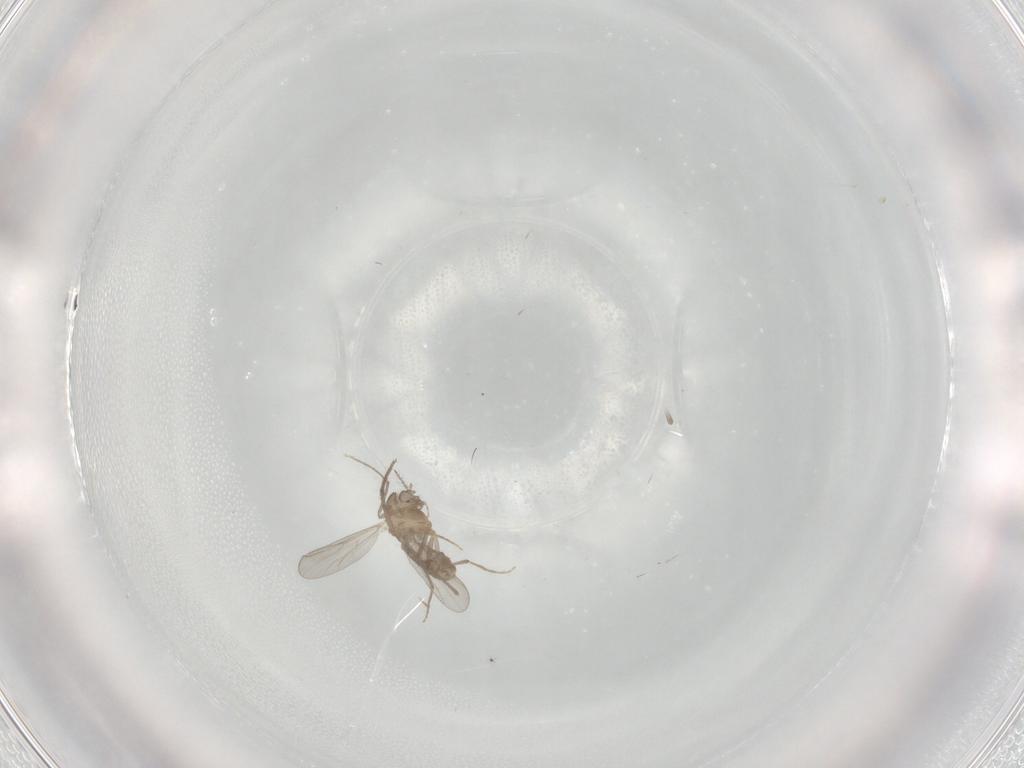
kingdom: Animalia
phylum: Arthropoda
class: Insecta
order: Diptera
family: Chironomidae
